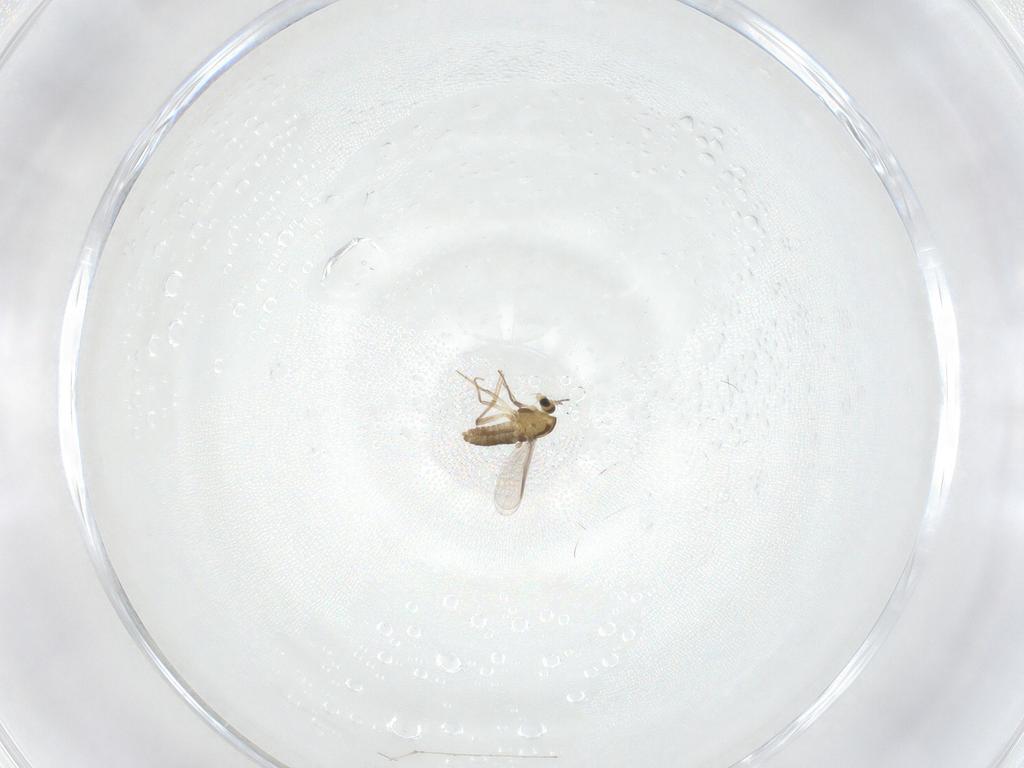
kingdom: Animalia
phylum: Arthropoda
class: Insecta
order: Diptera
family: Chironomidae
